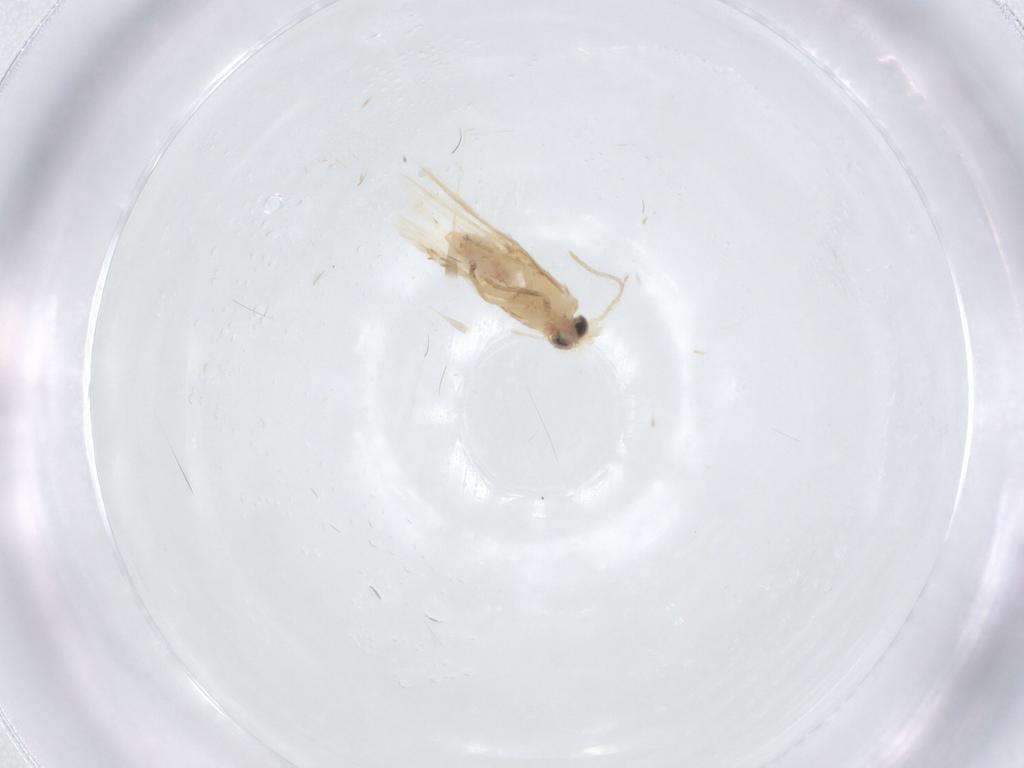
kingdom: Animalia
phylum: Arthropoda
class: Insecta
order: Lepidoptera
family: Nepticulidae
